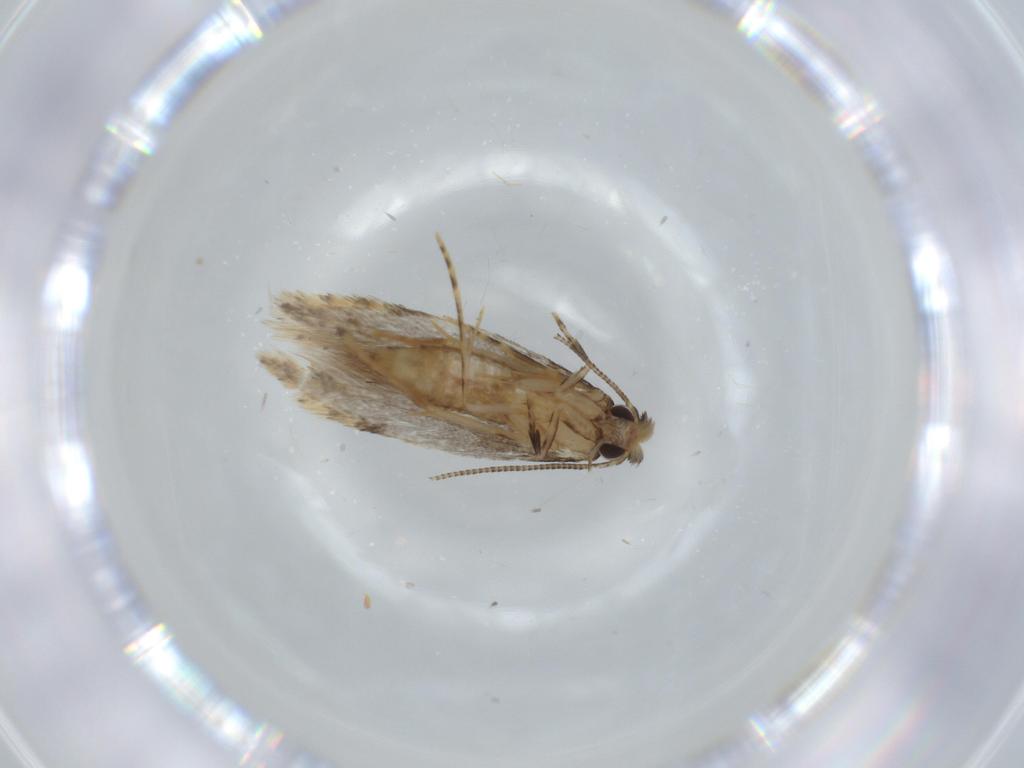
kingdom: Animalia
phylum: Arthropoda
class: Insecta
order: Lepidoptera
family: Tineidae
